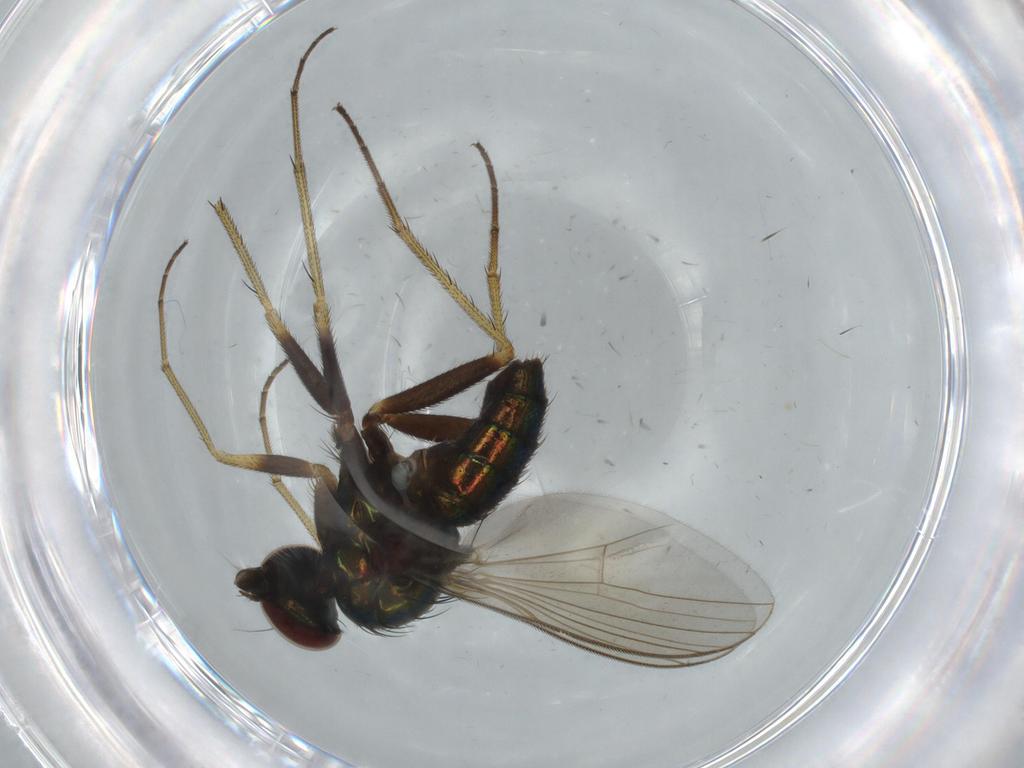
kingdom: Animalia
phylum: Arthropoda
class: Insecta
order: Diptera
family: Dolichopodidae
